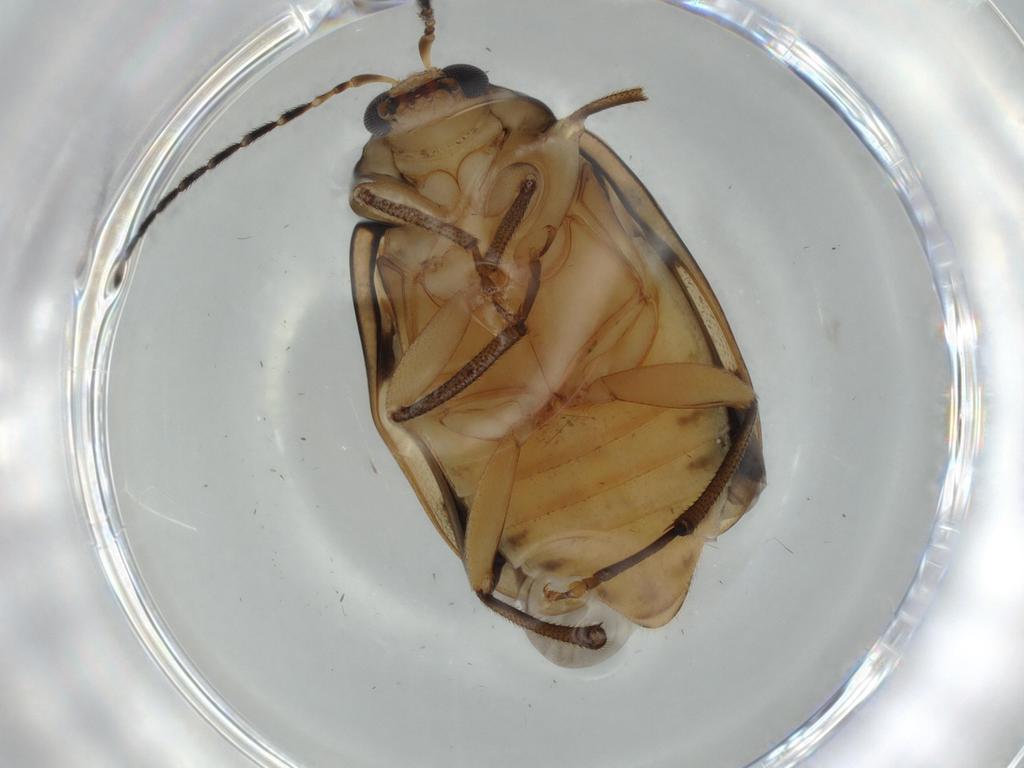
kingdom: Animalia
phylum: Arthropoda
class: Insecta
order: Coleoptera
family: Chrysomelidae
